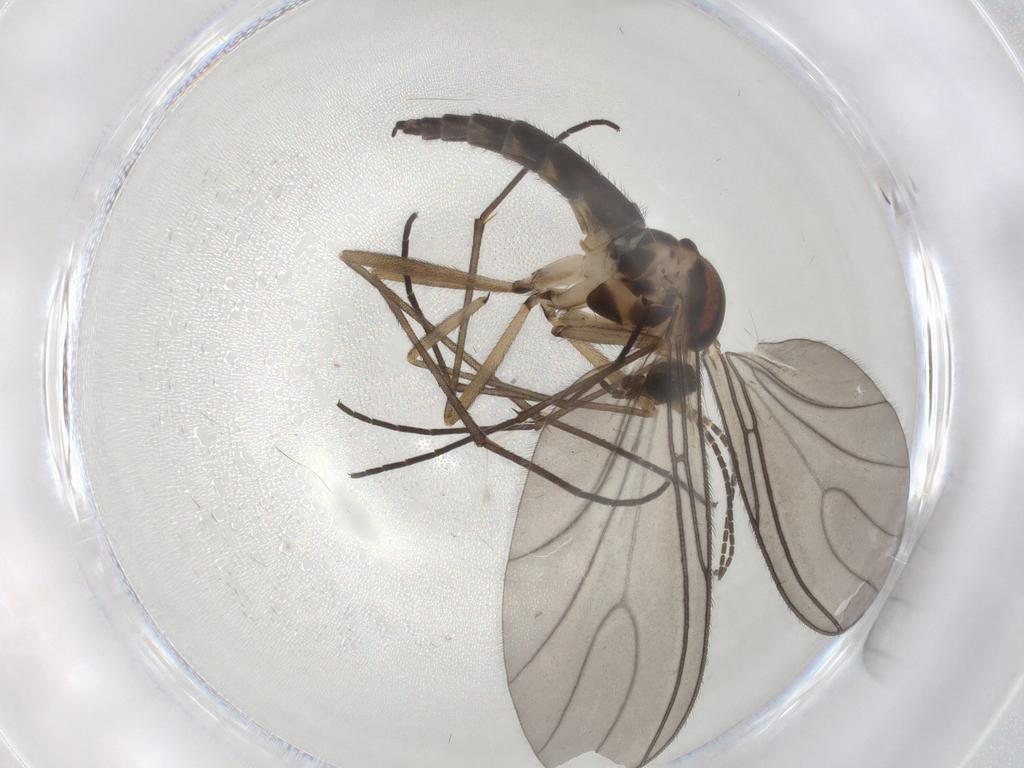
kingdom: Animalia
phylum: Arthropoda
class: Insecta
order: Diptera
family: Sciaridae
